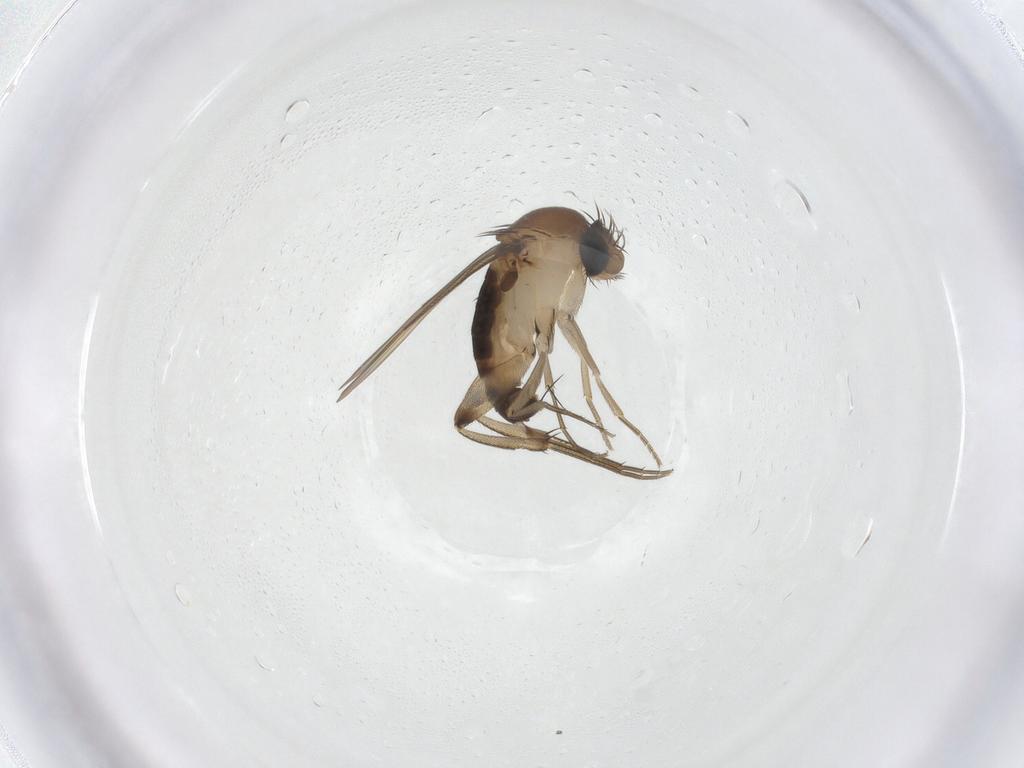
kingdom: Animalia
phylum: Arthropoda
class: Insecta
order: Diptera
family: Phoridae
